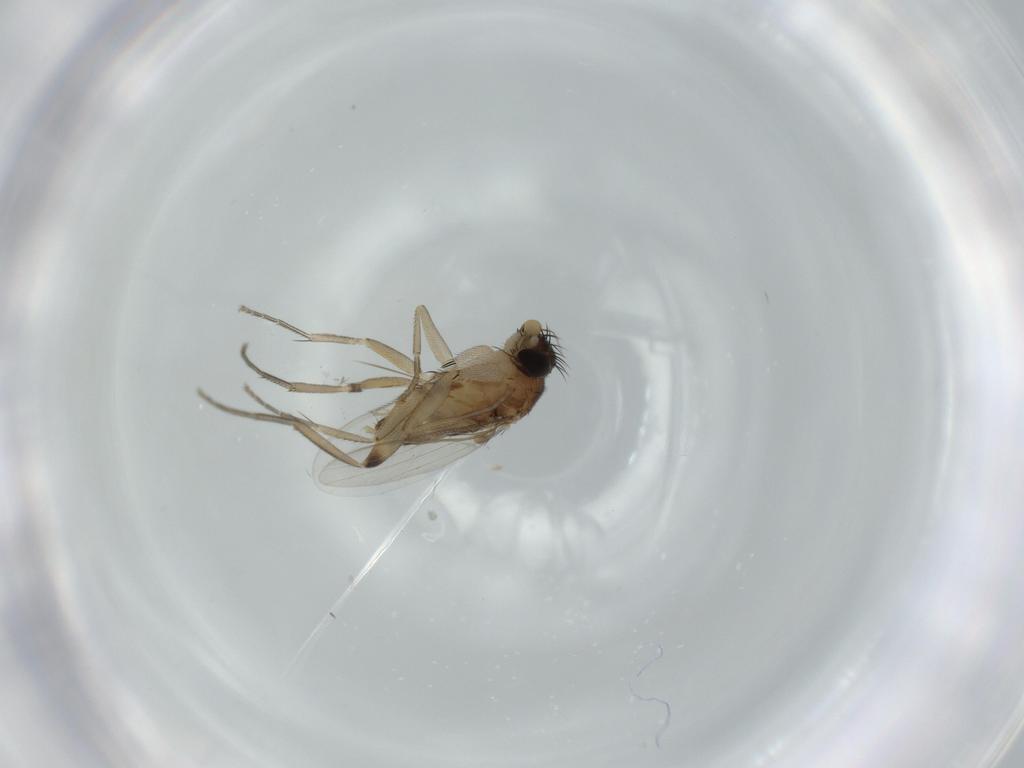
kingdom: Animalia
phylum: Arthropoda
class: Insecta
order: Diptera
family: Phoridae
